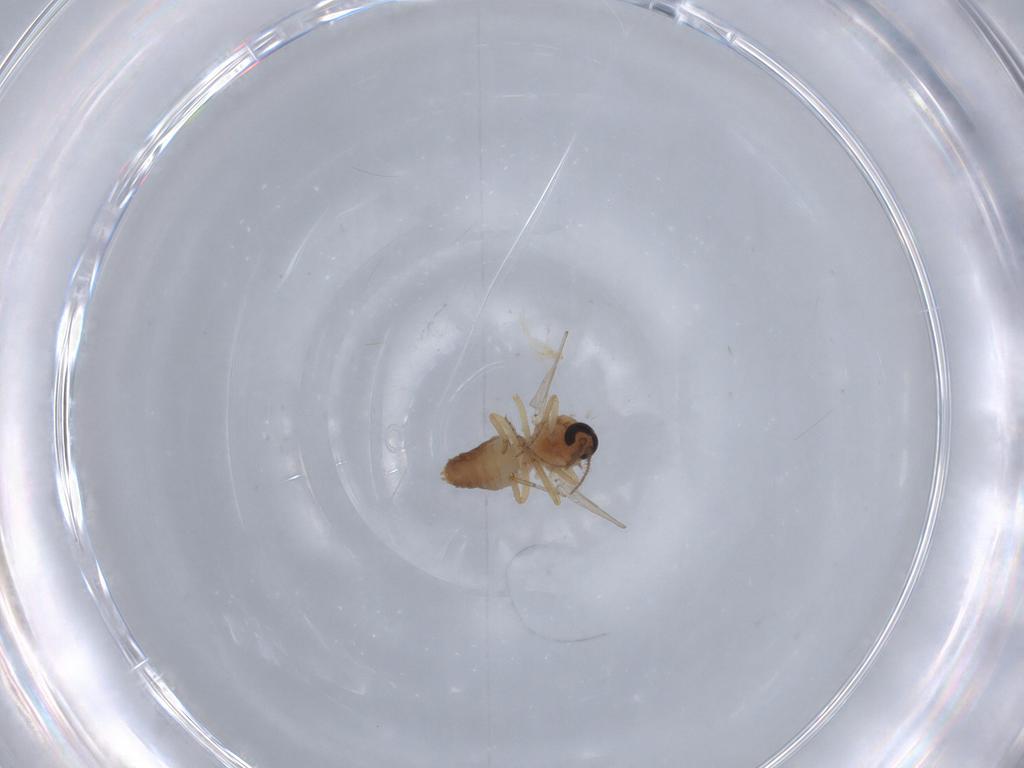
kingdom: Animalia
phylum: Arthropoda
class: Insecta
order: Diptera
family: Ceratopogonidae
